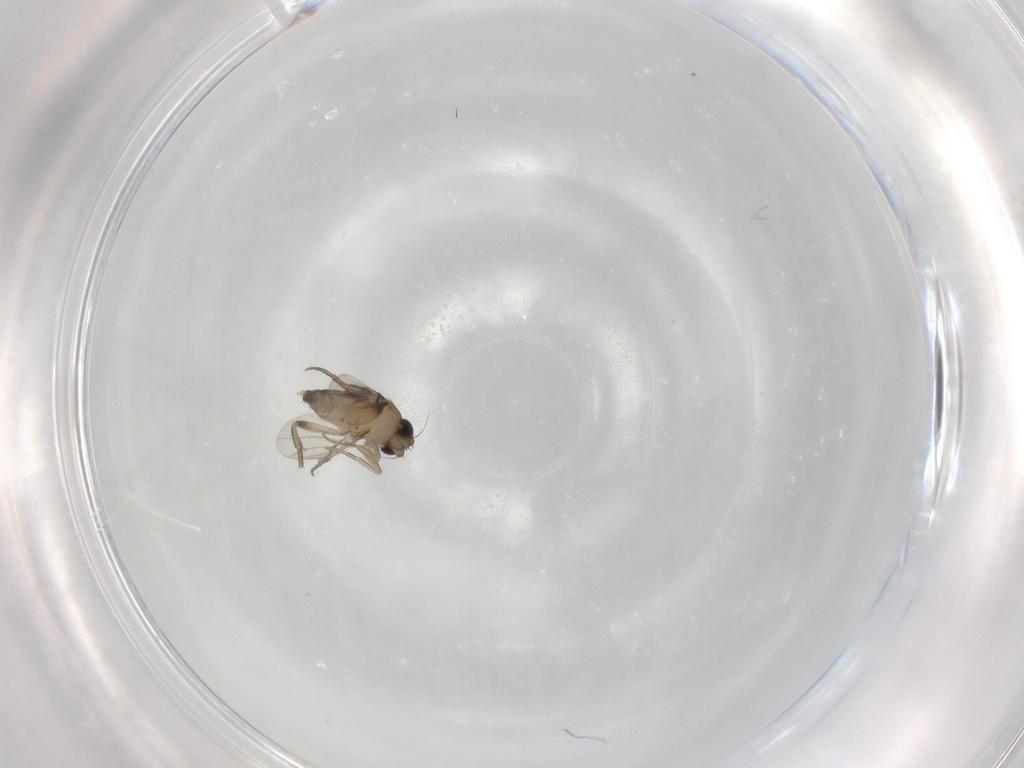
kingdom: Animalia
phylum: Arthropoda
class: Insecta
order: Diptera
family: Phoridae
